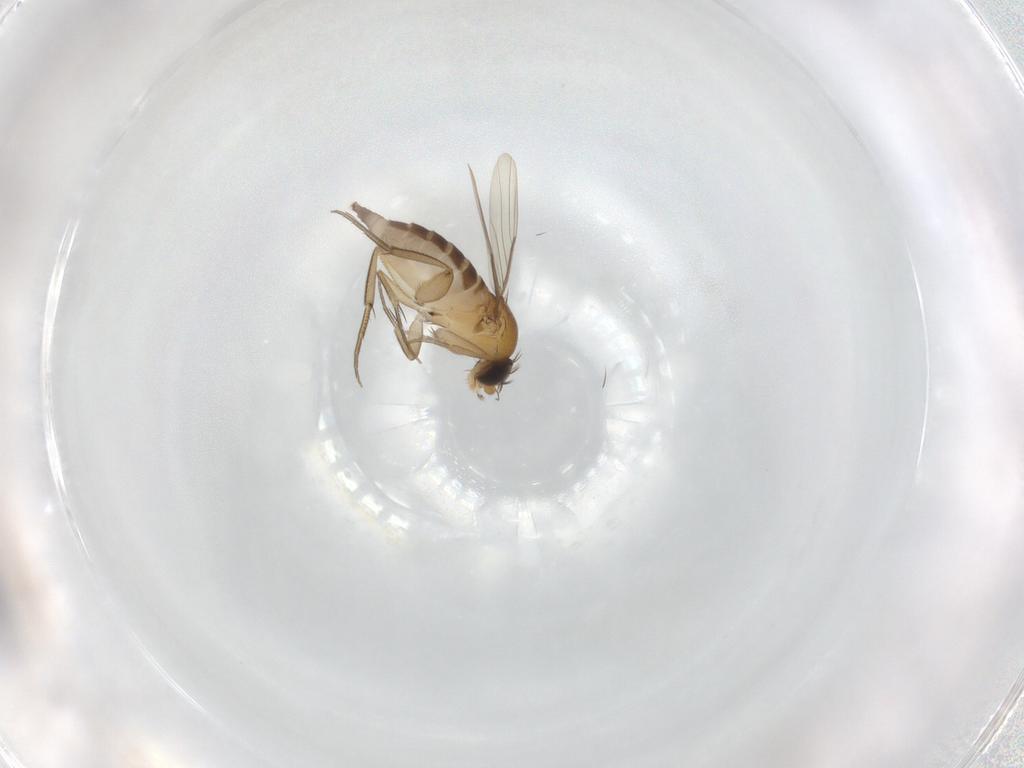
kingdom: Animalia
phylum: Arthropoda
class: Insecta
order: Diptera
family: Phoridae
